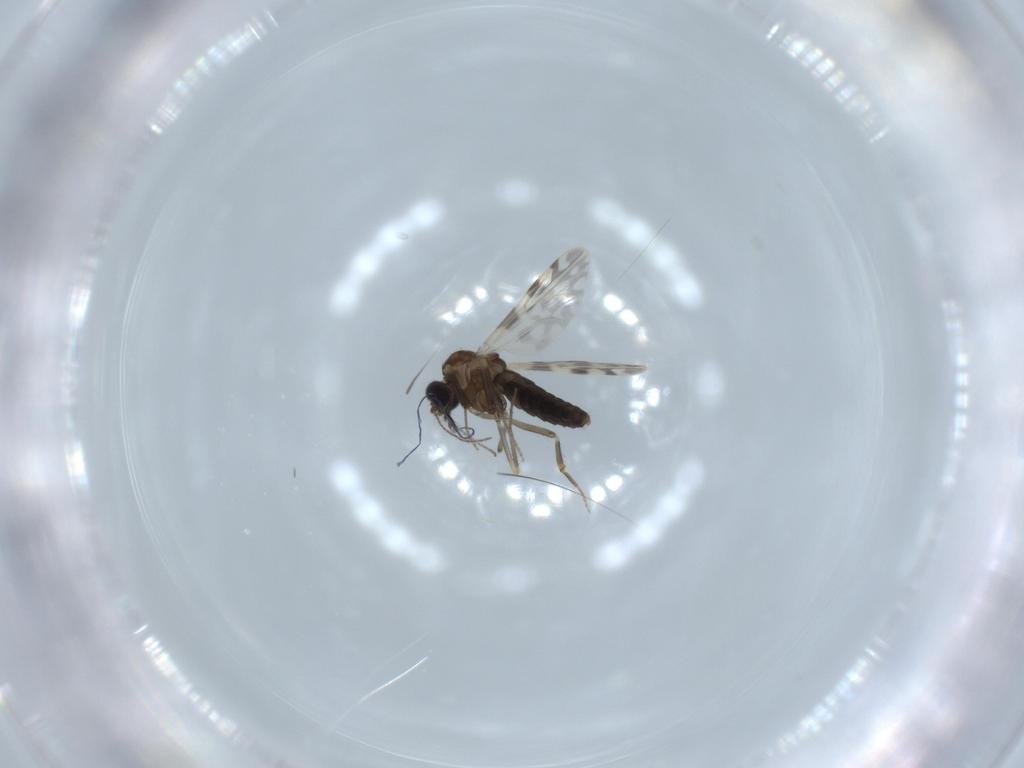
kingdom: Animalia
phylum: Arthropoda
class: Insecta
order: Diptera
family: Ceratopogonidae
